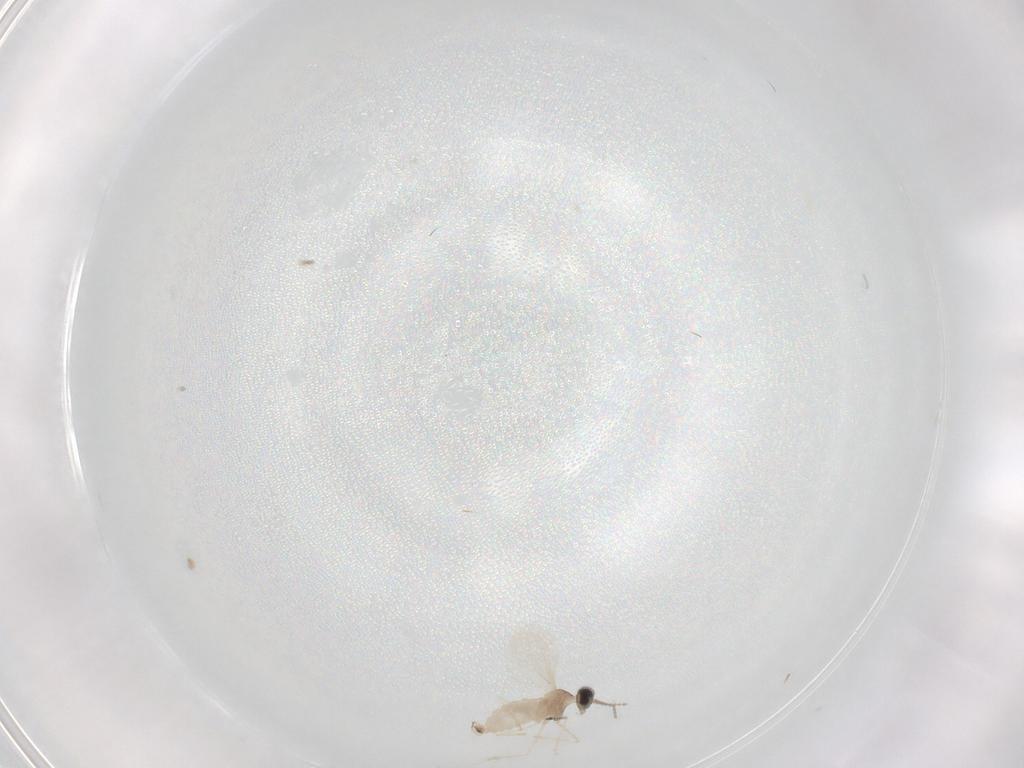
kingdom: Animalia
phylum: Arthropoda
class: Insecta
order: Diptera
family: Cecidomyiidae
